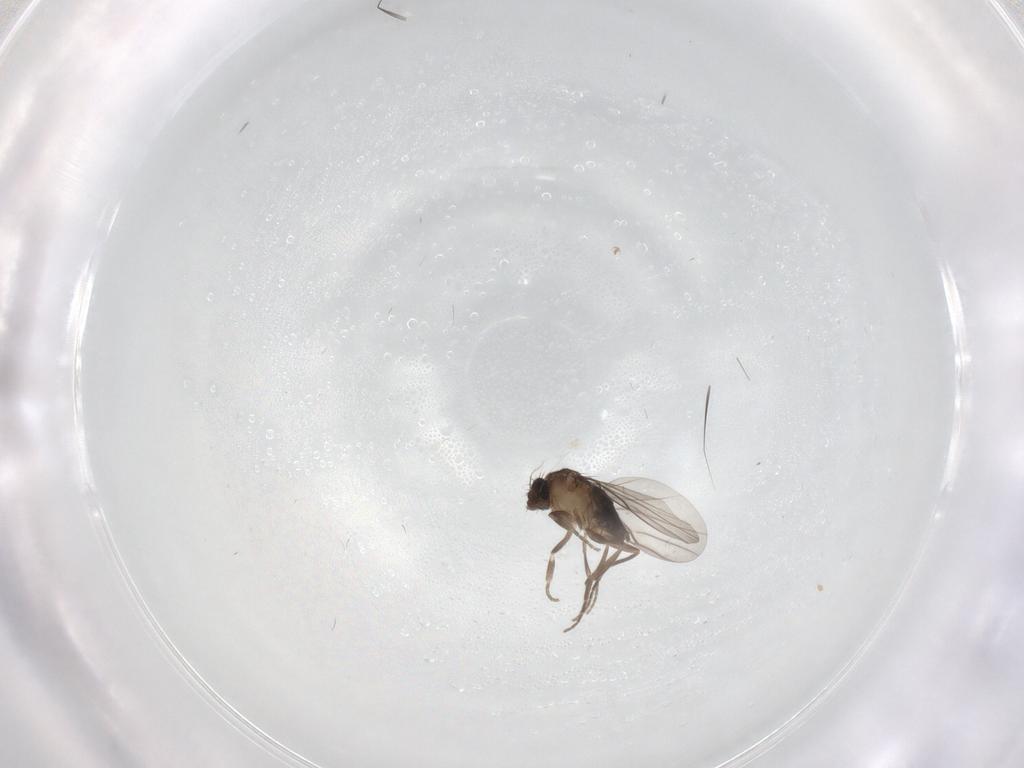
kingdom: Animalia
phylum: Arthropoda
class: Insecta
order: Diptera
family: Phoridae
